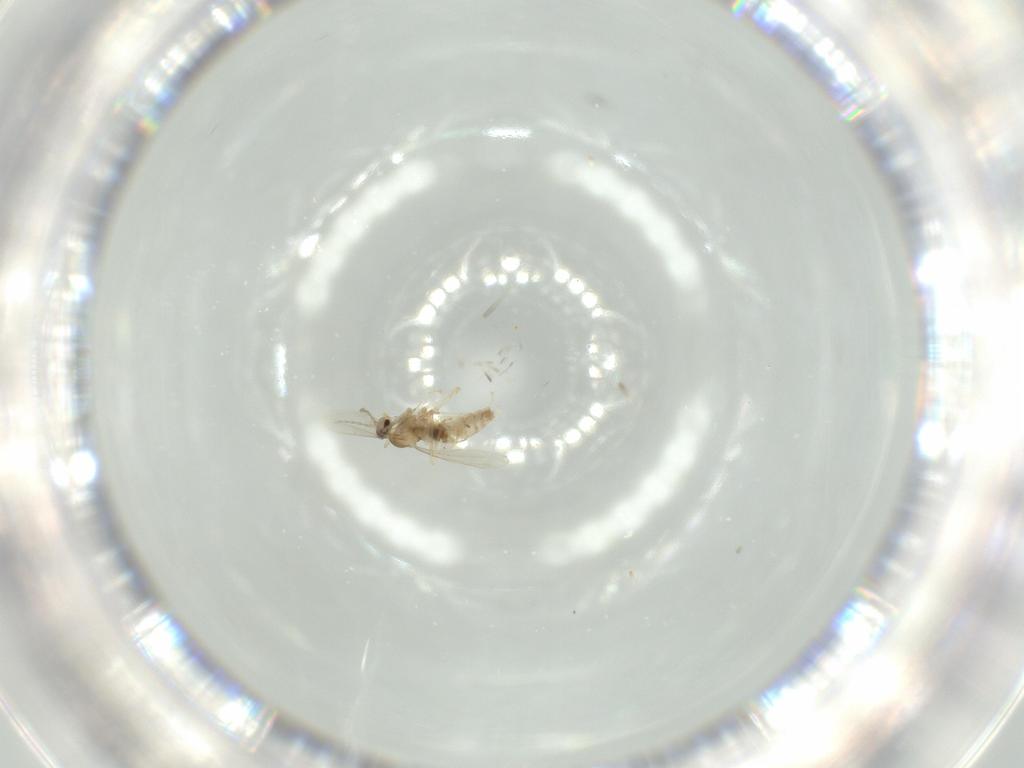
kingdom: Animalia
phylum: Arthropoda
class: Insecta
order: Diptera
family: Cecidomyiidae
